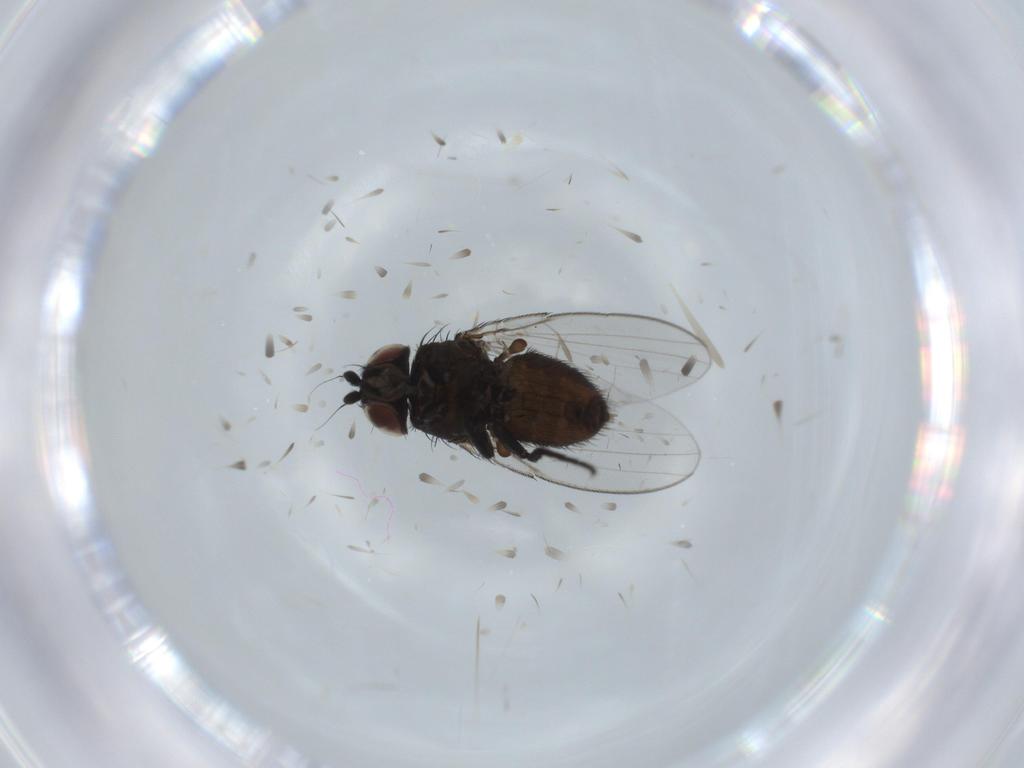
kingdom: Animalia
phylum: Arthropoda
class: Insecta
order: Diptera
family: Milichiidae
